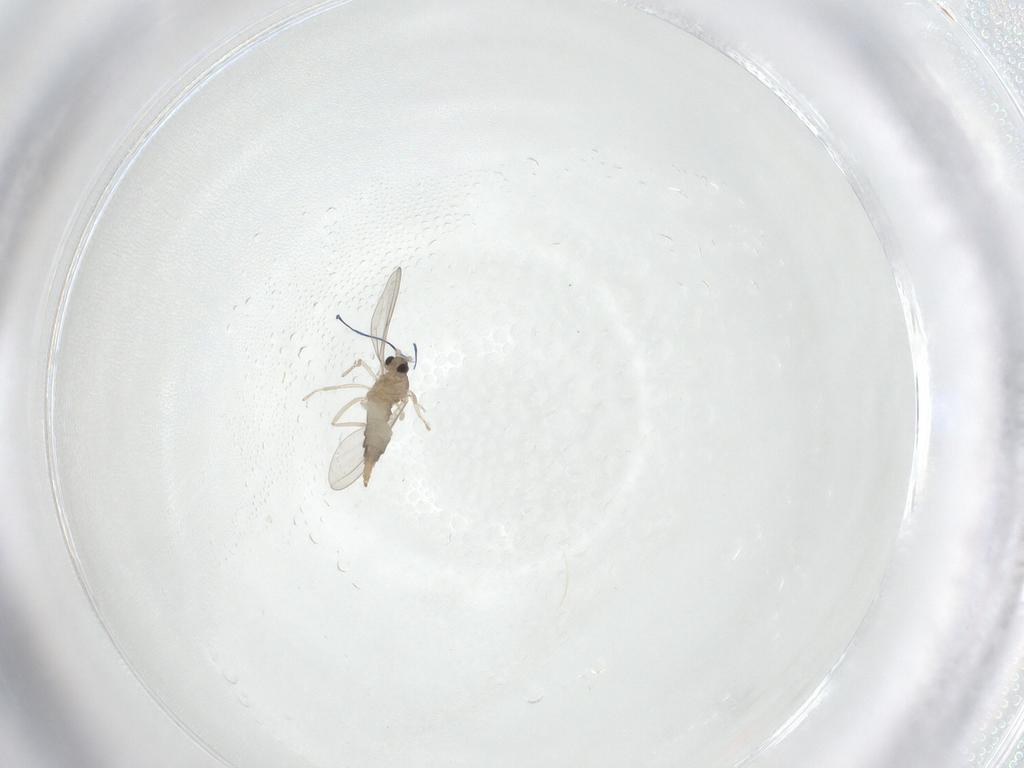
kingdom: Animalia
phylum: Arthropoda
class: Insecta
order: Diptera
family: Cecidomyiidae
